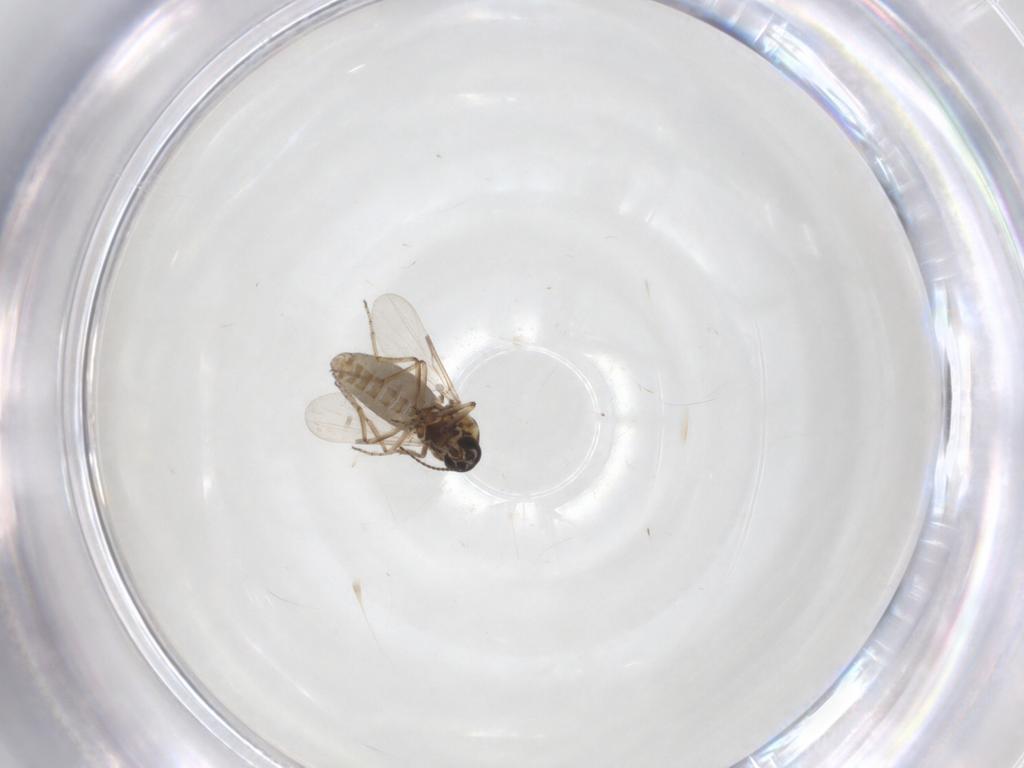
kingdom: Animalia
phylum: Arthropoda
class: Insecta
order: Diptera
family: Ceratopogonidae
